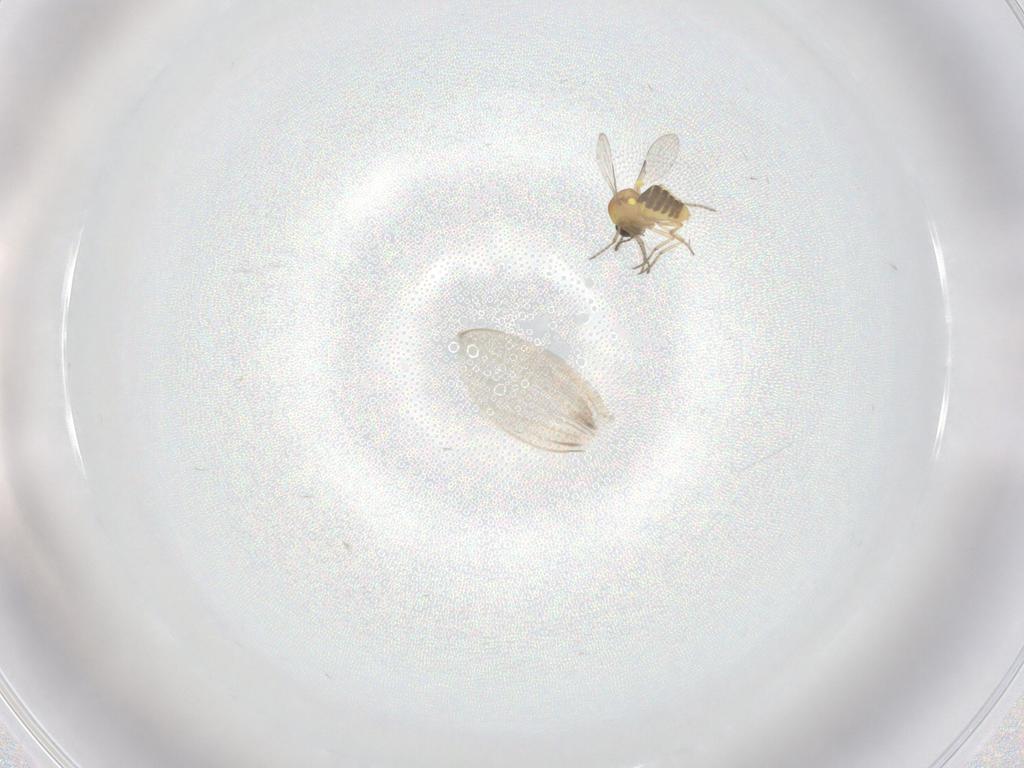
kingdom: Animalia
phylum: Arthropoda
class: Insecta
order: Diptera
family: Ceratopogonidae
